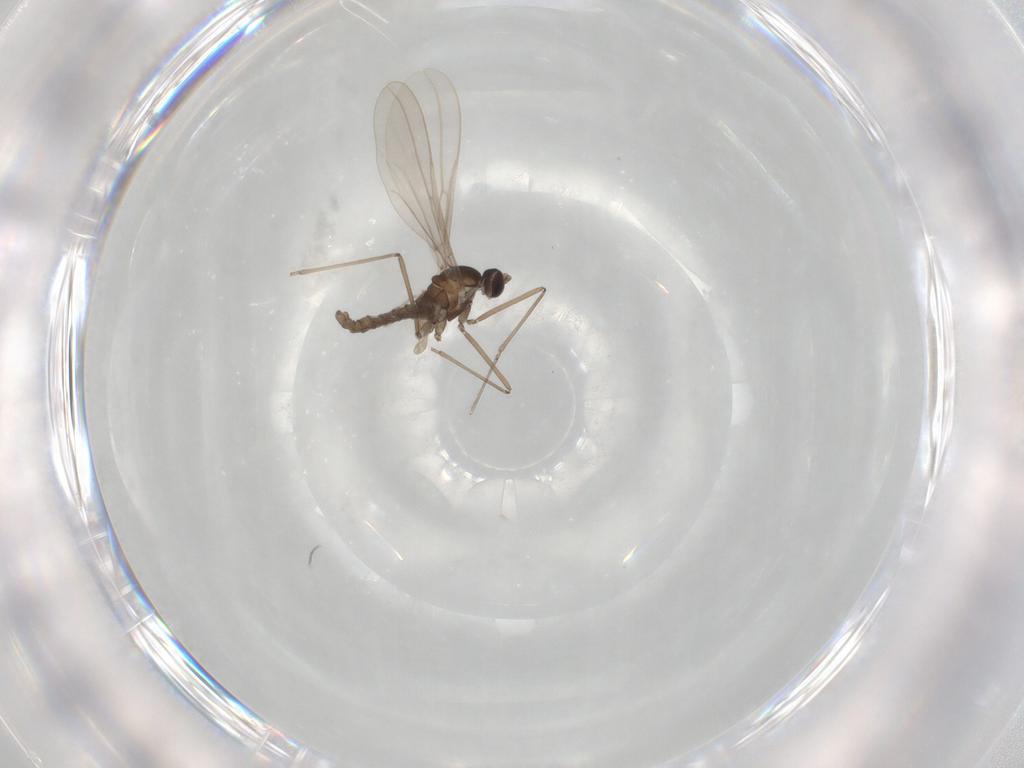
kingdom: Animalia
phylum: Arthropoda
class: Insecta
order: Diptera
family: Cecidomyiidae
